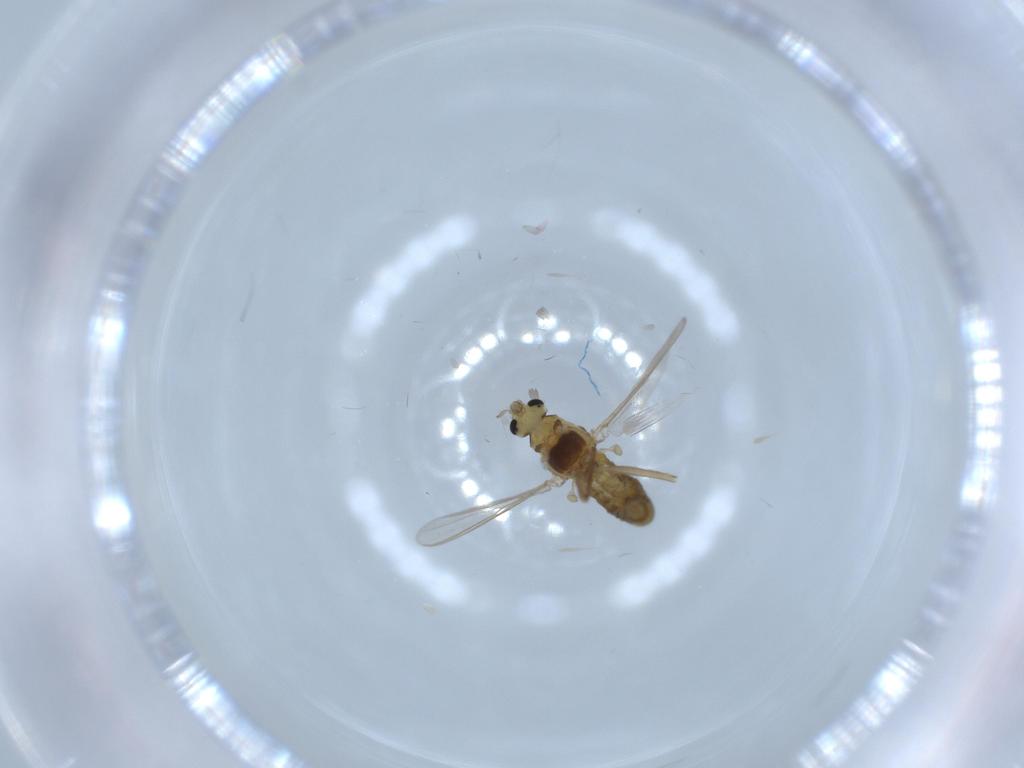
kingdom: Animalia
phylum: Arthropoda
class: Insecta
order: Diptera
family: Chironomidae
